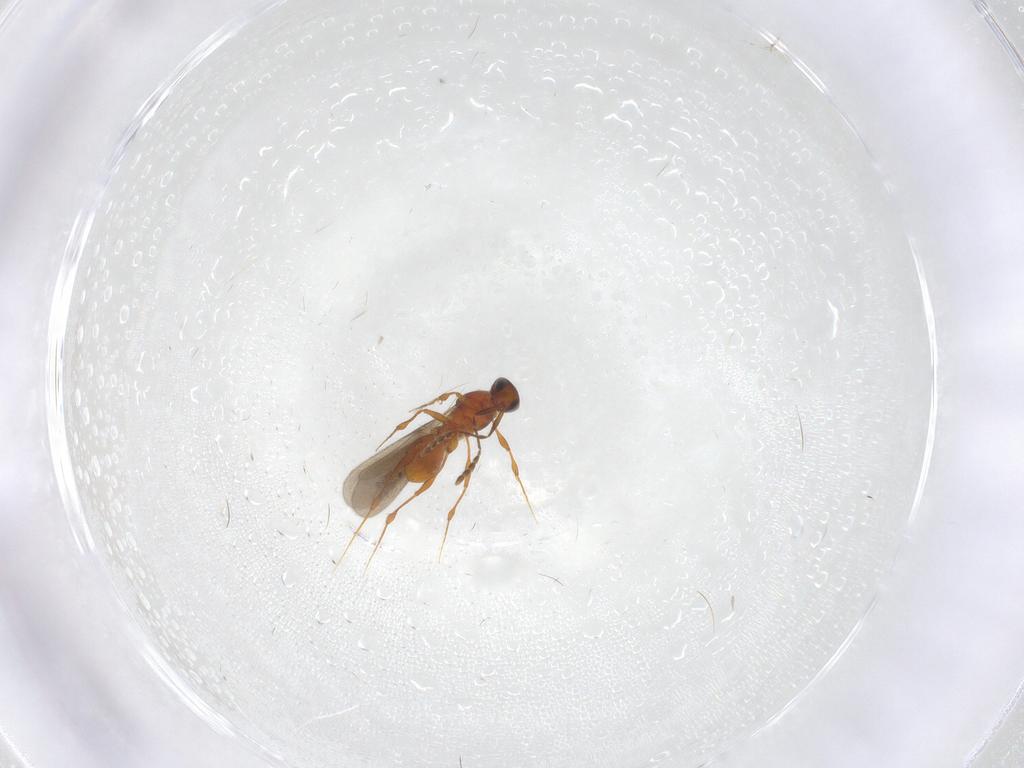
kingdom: Animalia
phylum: Arthropoda
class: Insecta
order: Hymenoptera
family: Platygastridae
